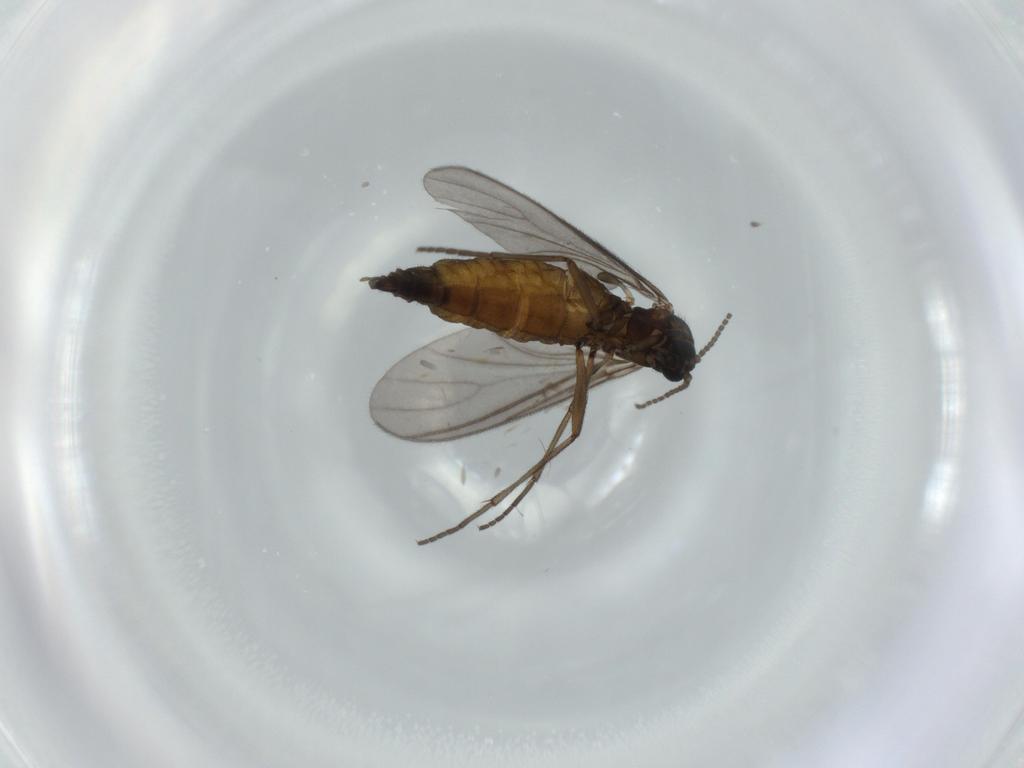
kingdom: Animalia
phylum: Arthropoda
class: Insecta
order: Diptera
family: Sciaridae
